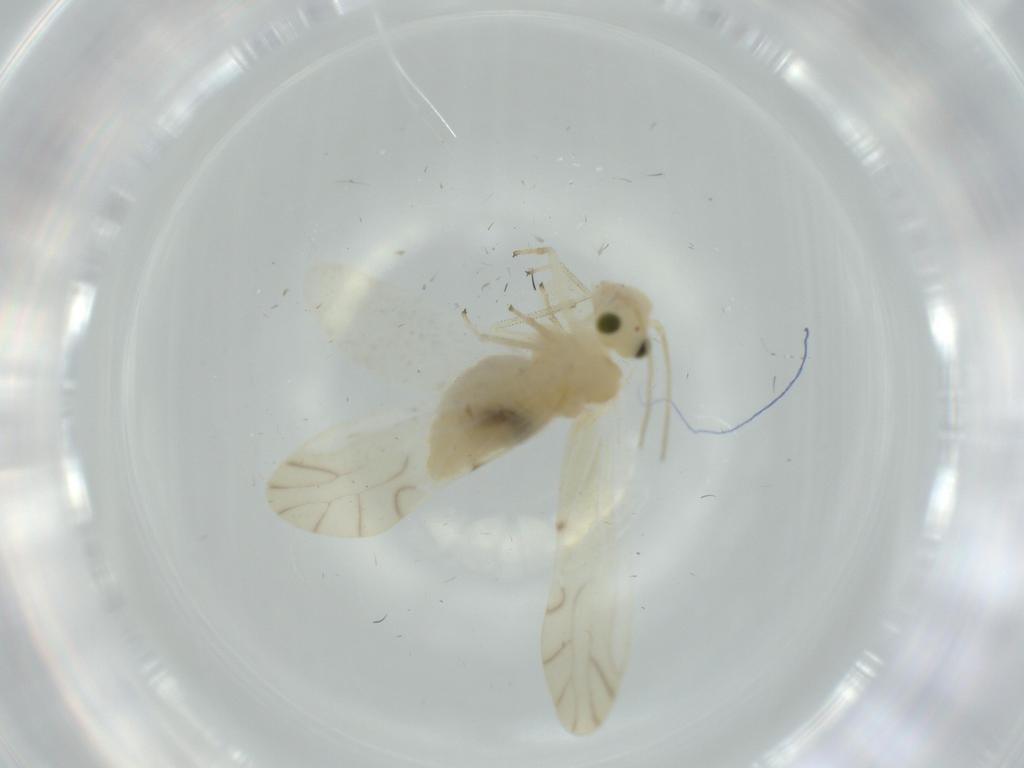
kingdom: Animalia
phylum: Arthropoda
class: Insecta
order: Psocodea
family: Caeciliusidae
